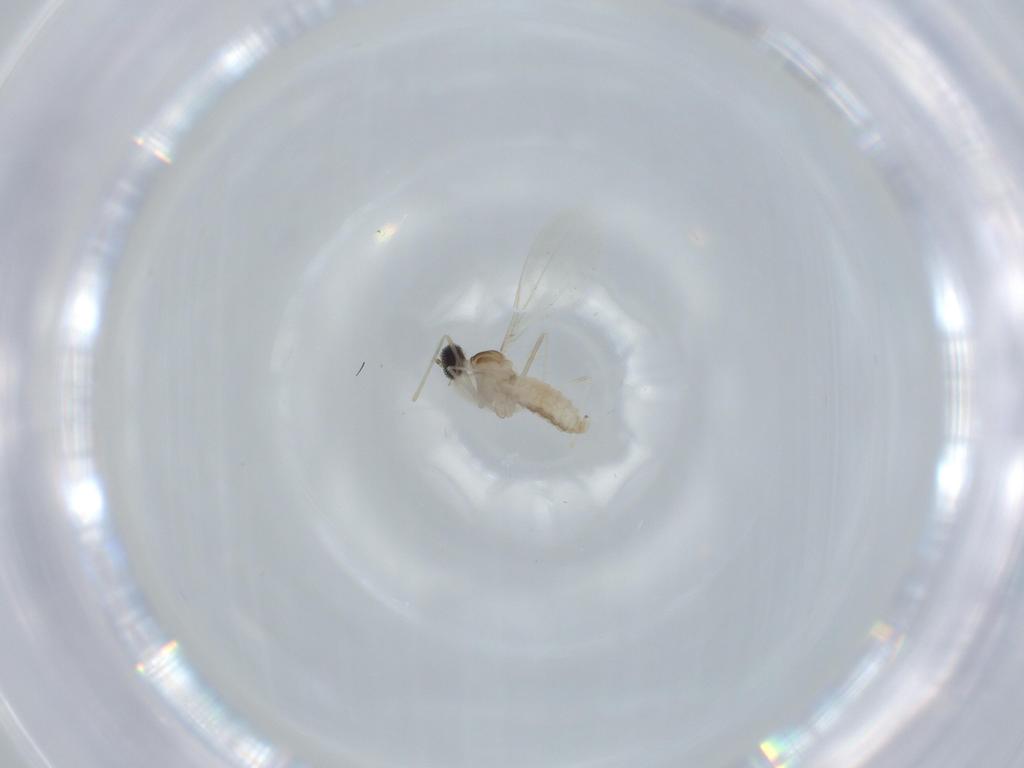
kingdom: Animalia
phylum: Arthropoda
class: Insecta
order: Diptera
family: Cecidomyiidae
